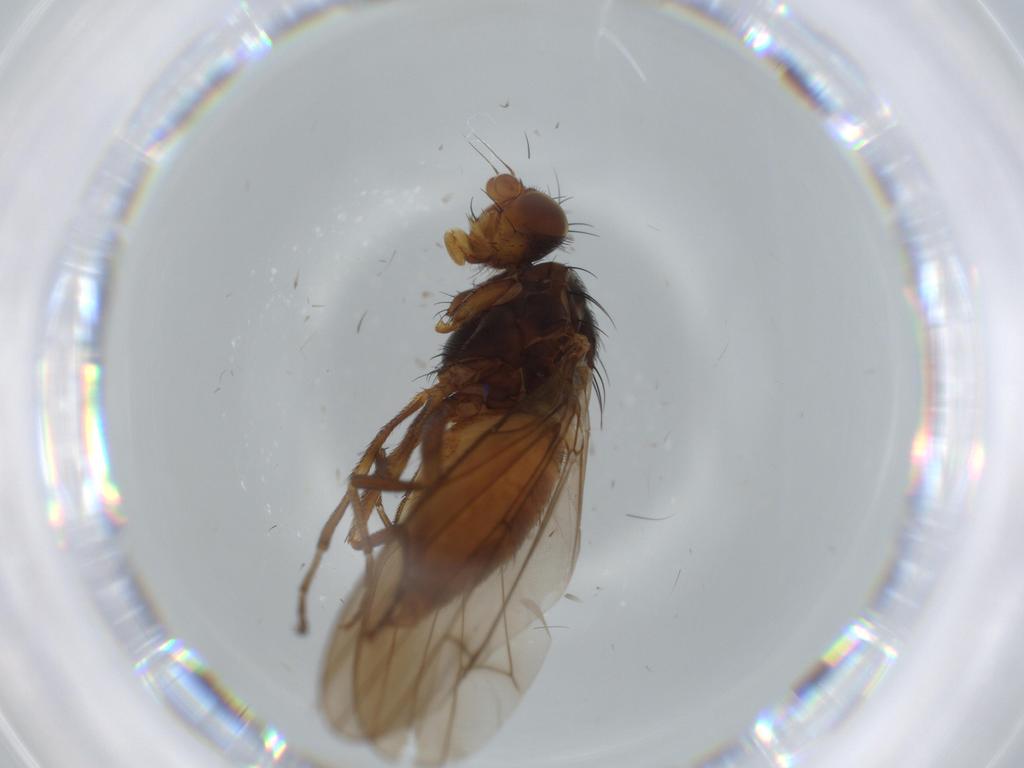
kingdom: Animalia
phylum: Arthropoda
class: Insecta
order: Diptera
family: Heleomyzidae
